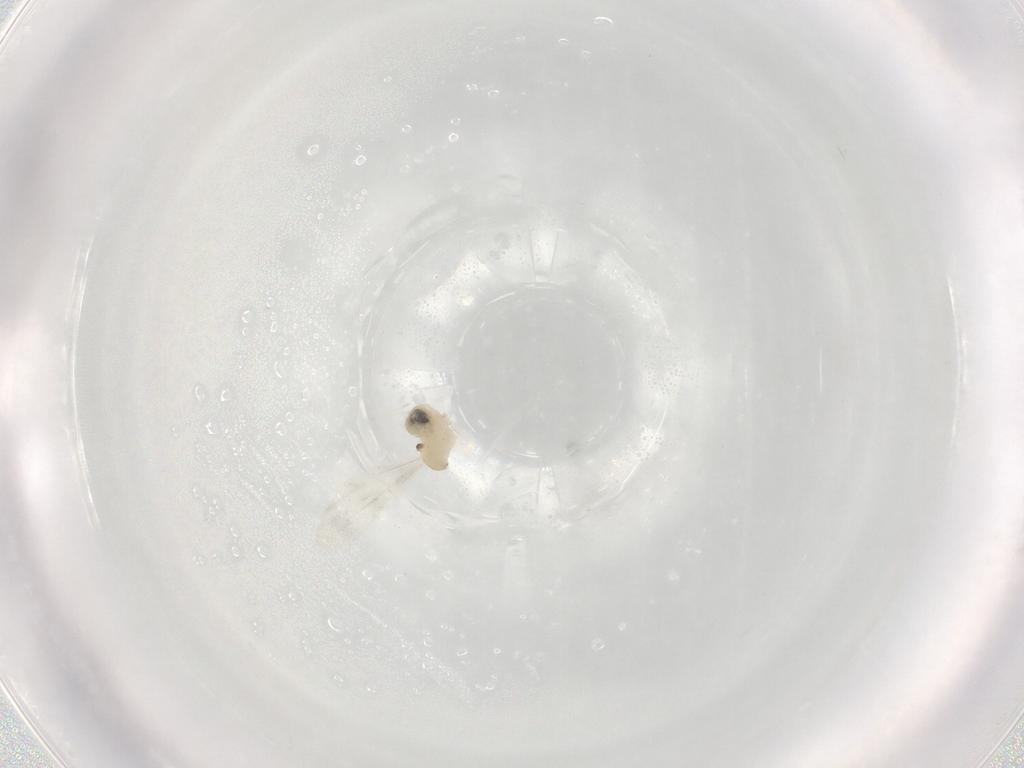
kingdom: Animalia
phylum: Arthropoda
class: Insecta
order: Diptera
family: Cecidomyiidae
